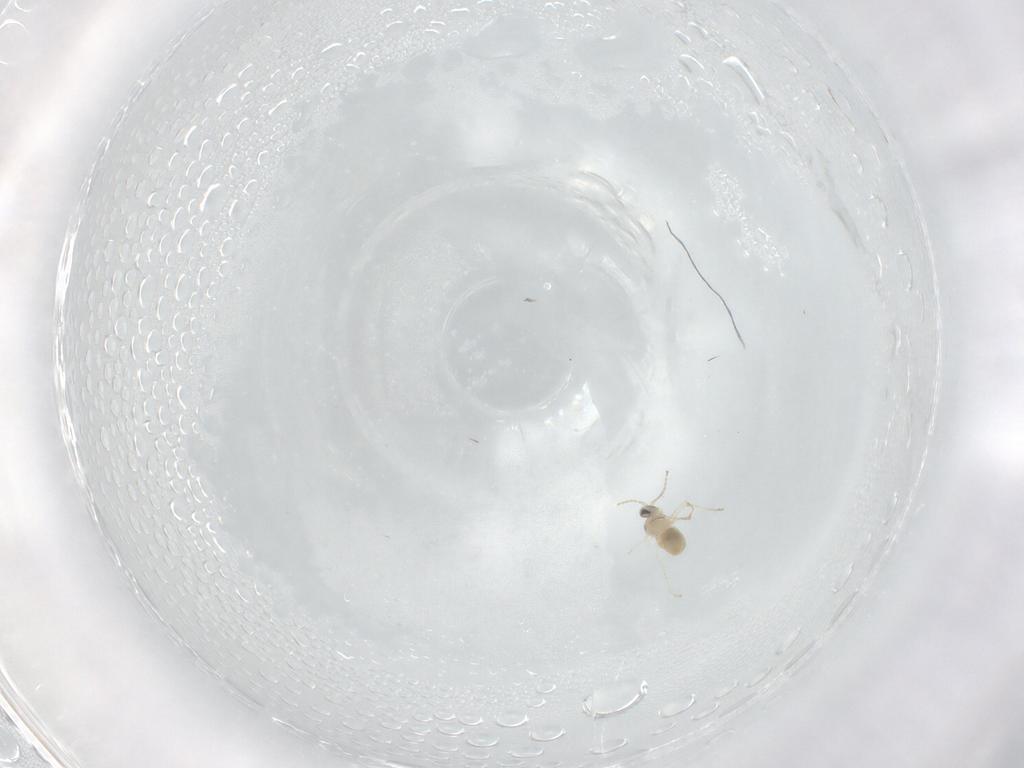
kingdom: Animalia
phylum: Arthropoda
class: Insecta
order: Diptera
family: Cecidomyiidae
